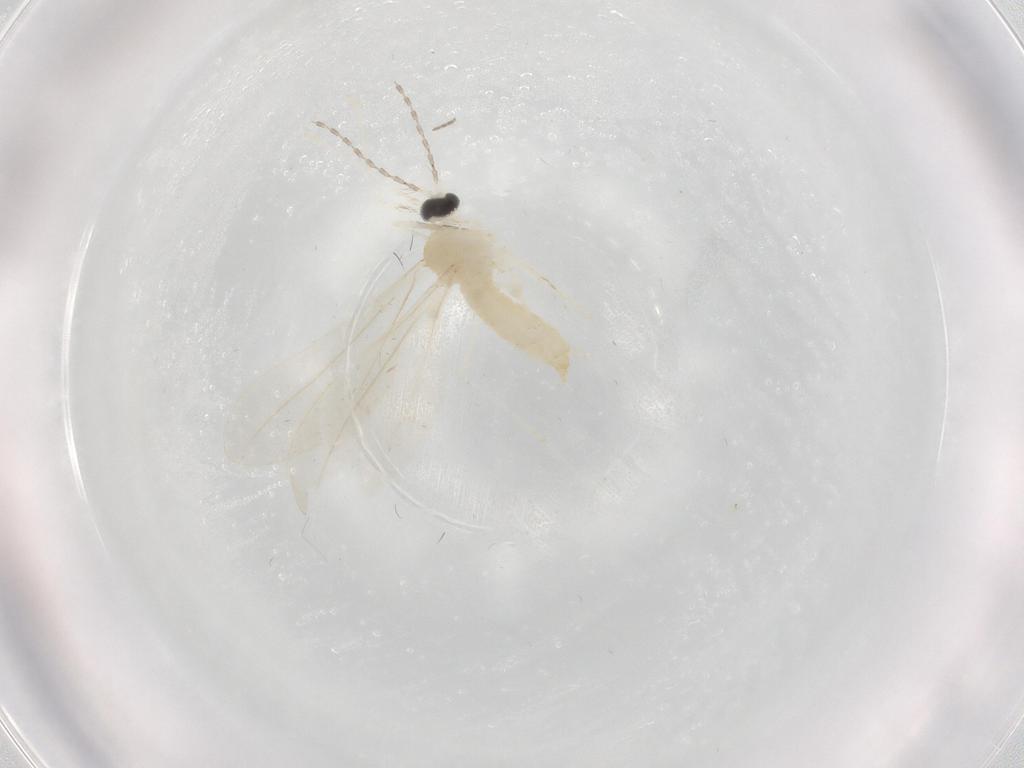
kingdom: Animalia
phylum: Arthropoda
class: Insecta
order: Diptera
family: Cecidomyiidae
